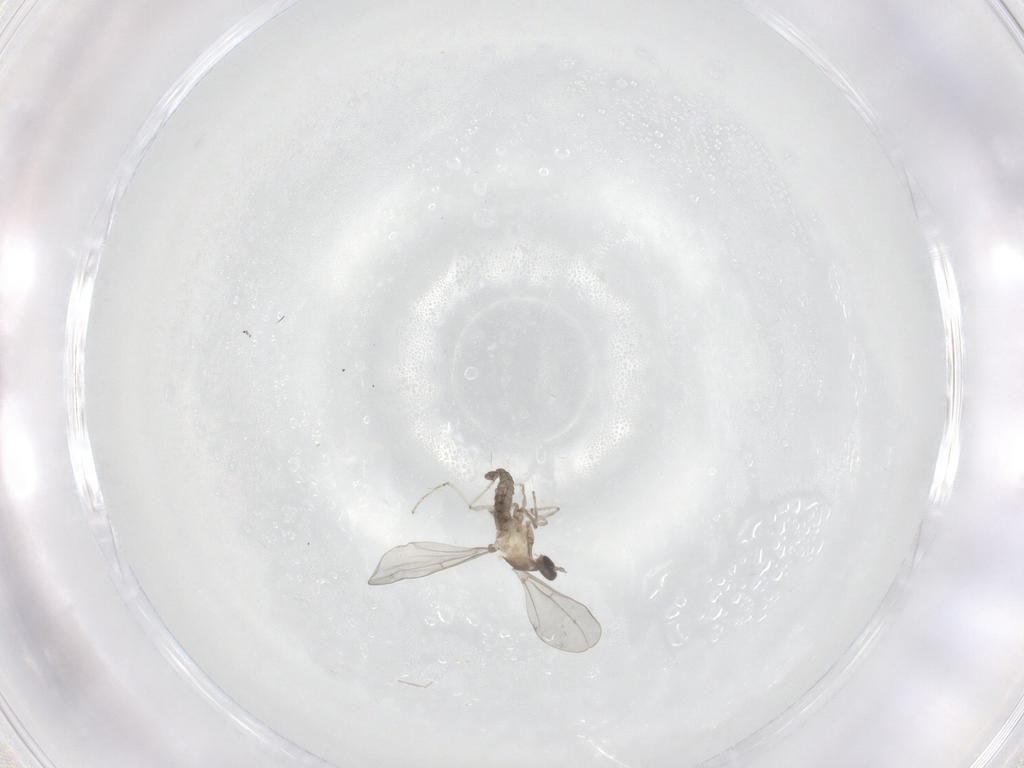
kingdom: Animalia
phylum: Arthropoda
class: Insecta
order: Diptera
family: Cecidomyiidae
